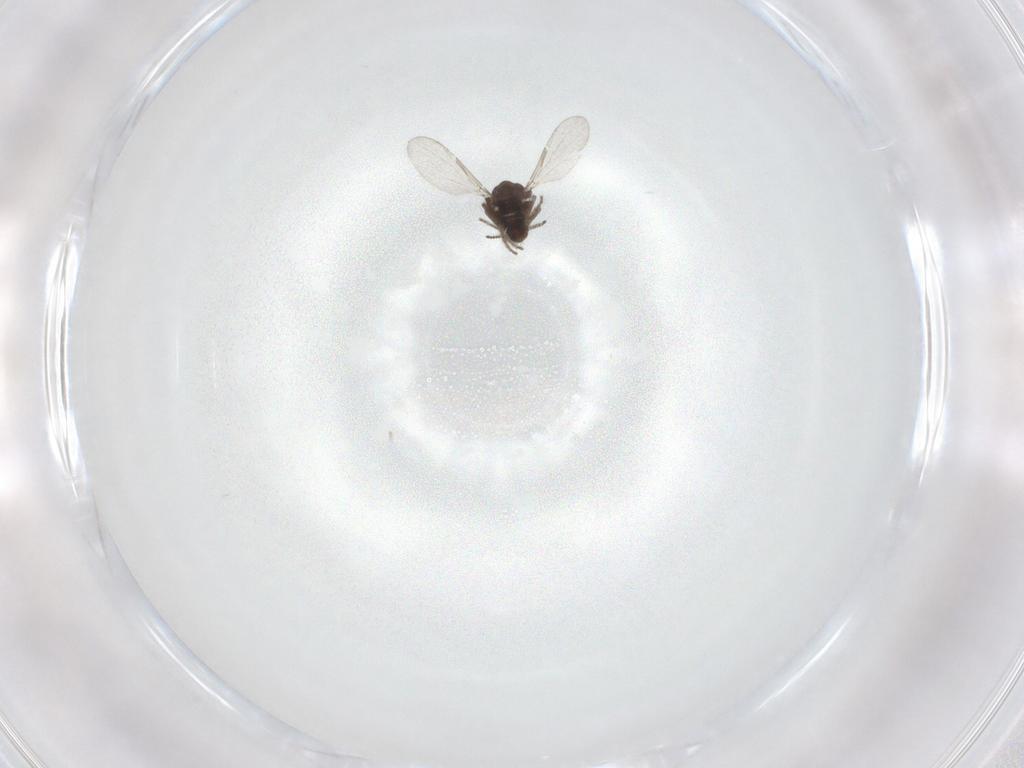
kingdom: Animalia
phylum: Arthropoda
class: Insecta
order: Diptera
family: Ceratopogonidae
